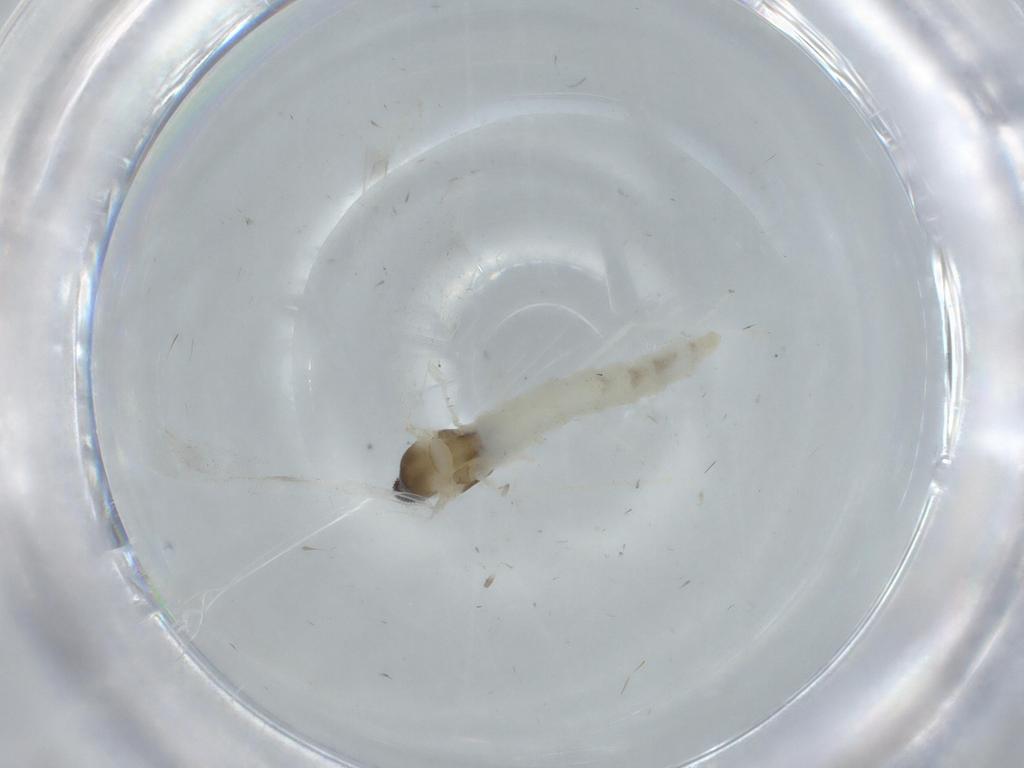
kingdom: Animalia
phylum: Arthropoda
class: Insecta
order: Diptera
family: Cecidomyiidae
